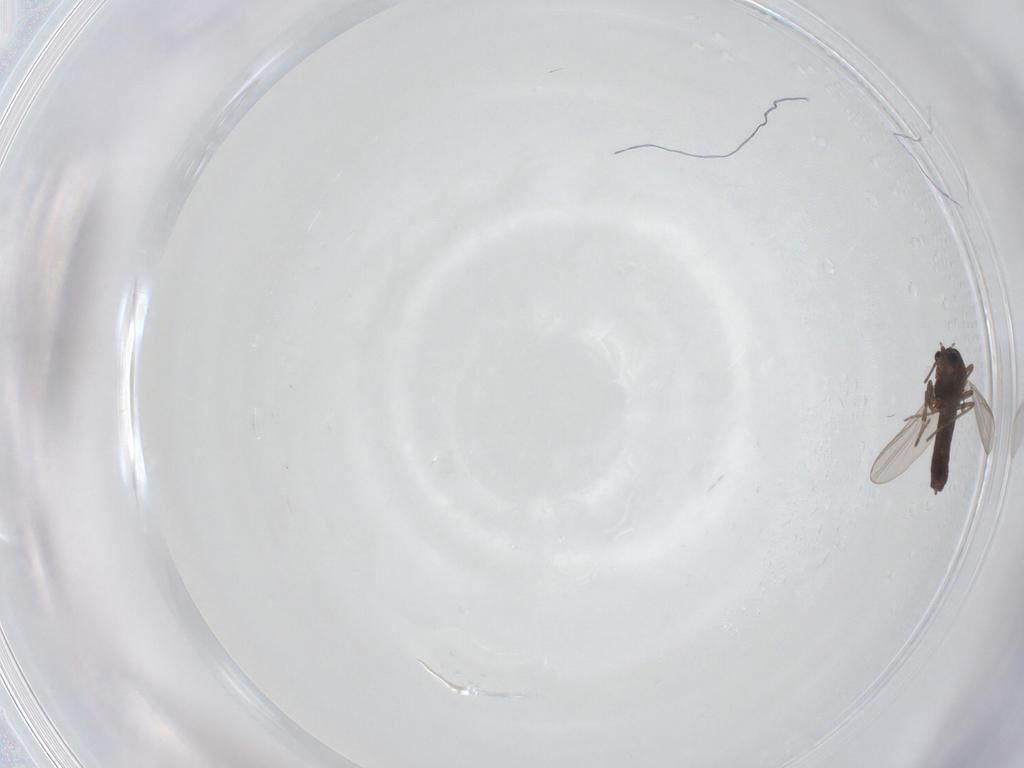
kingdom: Animalia
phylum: Arthropoda
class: Insecta
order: Diptera
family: Chironomidae
